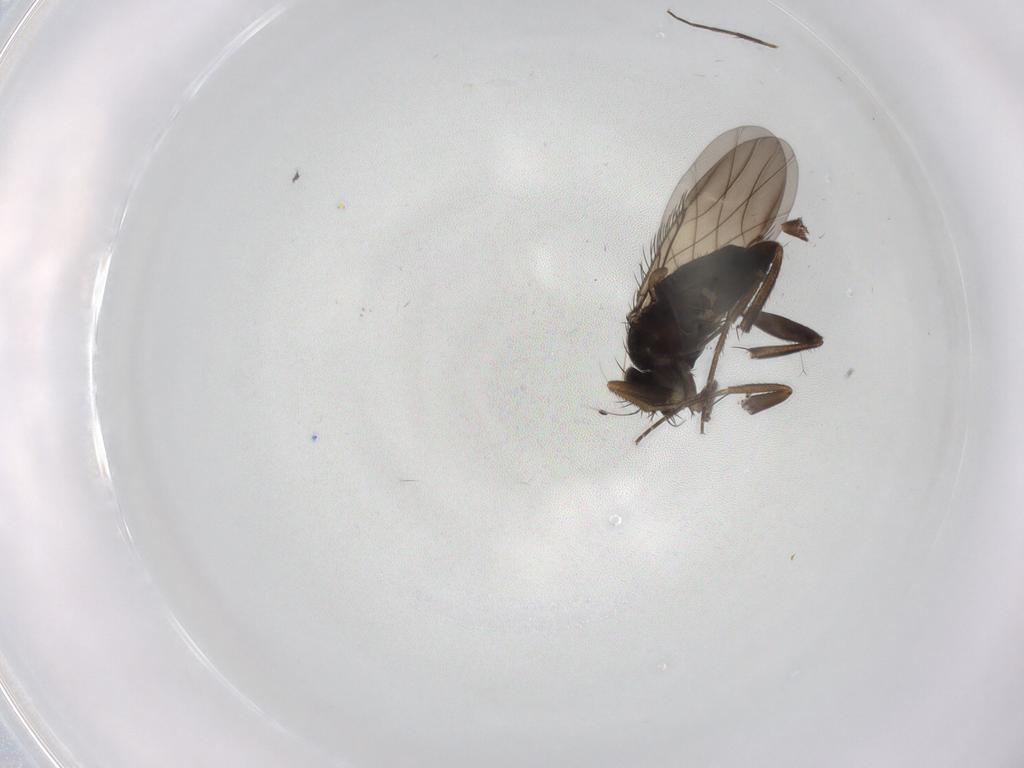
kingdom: Animalia
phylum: Arthropoda
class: Insecta
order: Diptera
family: Phoridae
